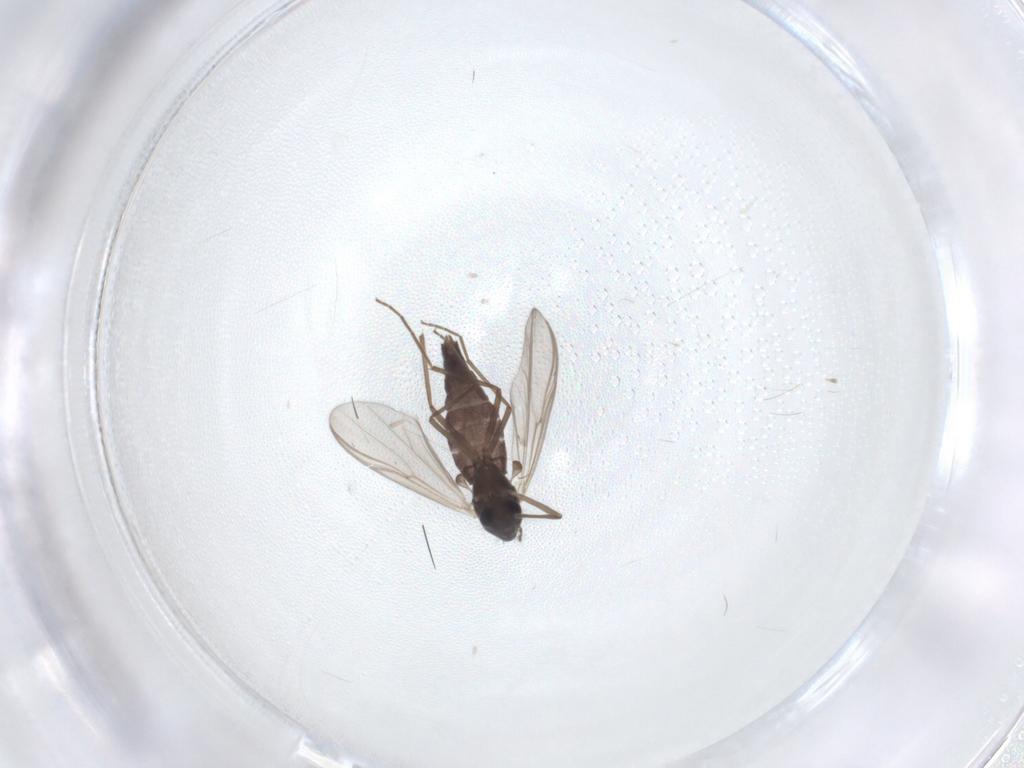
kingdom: Animalia
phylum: Arthropoda
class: Insecta
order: Diptera
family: Chironomidae
